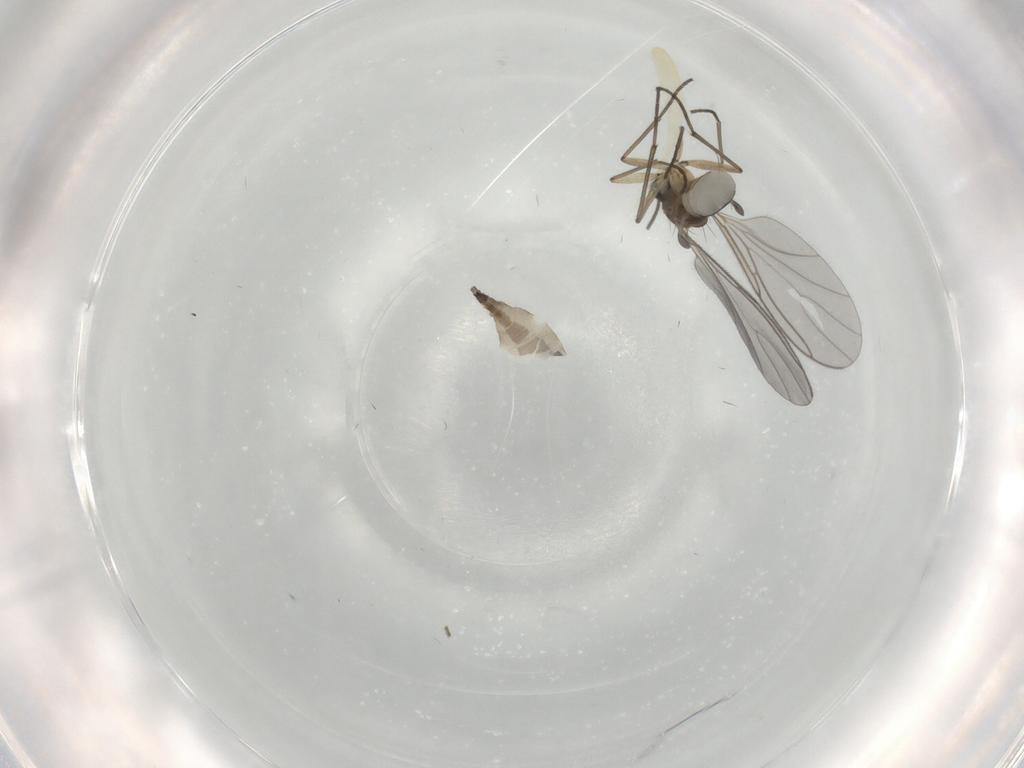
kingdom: Animalia
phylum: Arthropoda
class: Insecta
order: Diptera
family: Sciaridae
